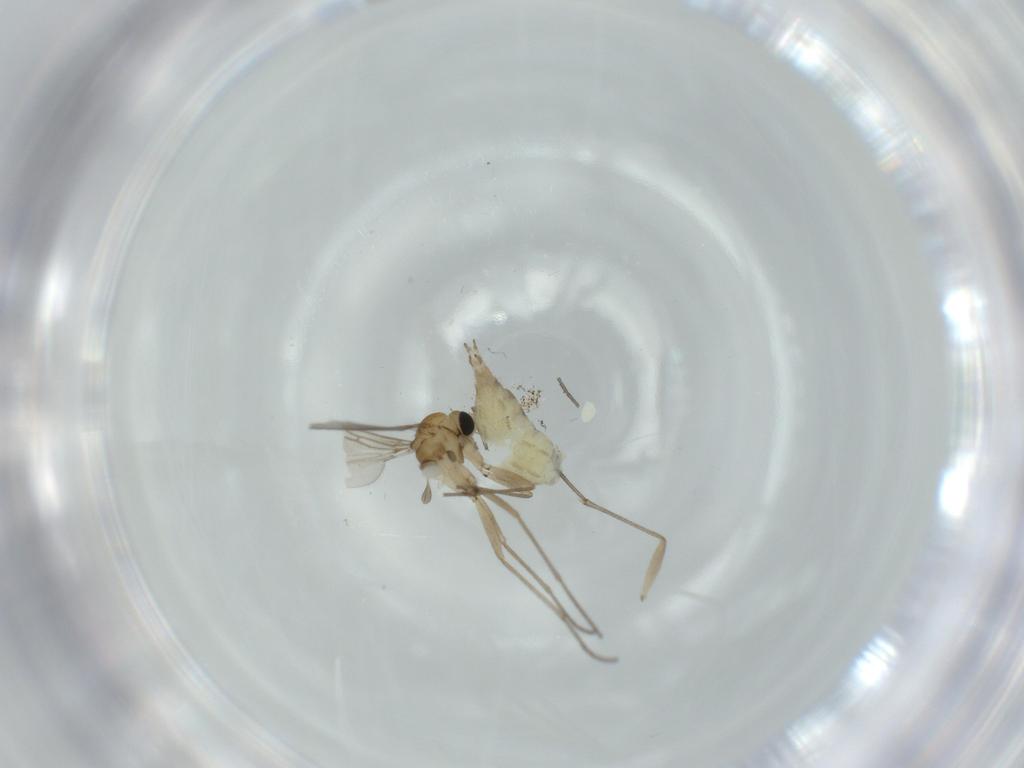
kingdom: Animalia
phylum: Arthropoda
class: Insecta
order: Diptera
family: Sciaridae
